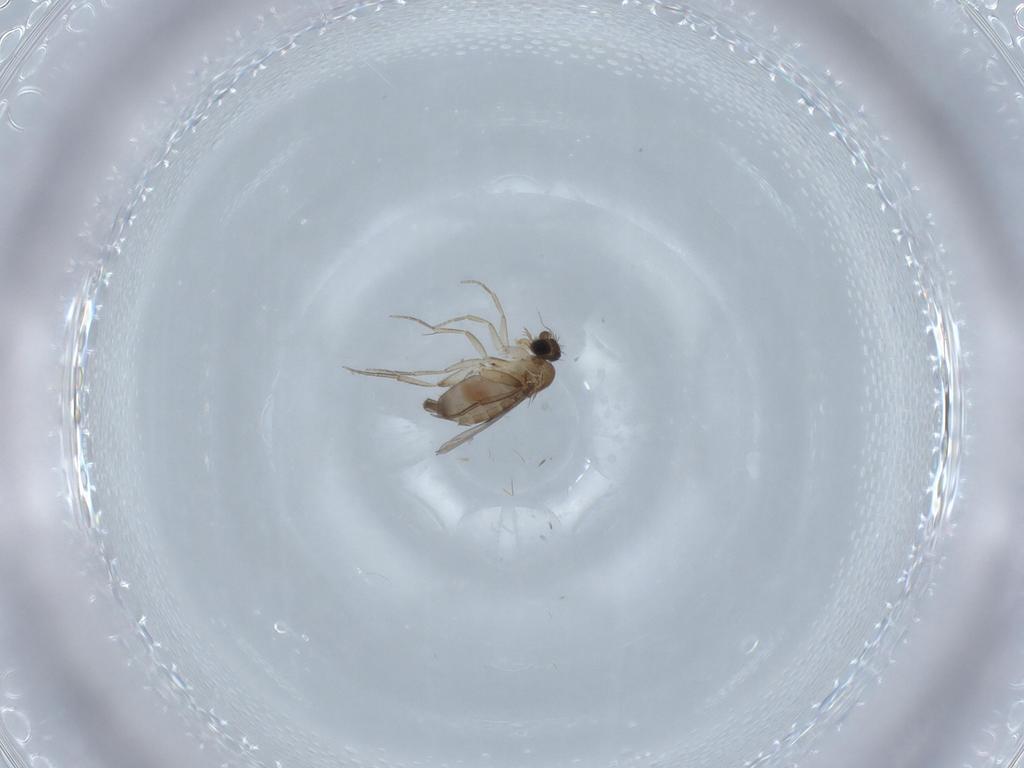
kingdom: Animalia
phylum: Arthropoda
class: Insecta
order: Diptera
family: Phoridae
